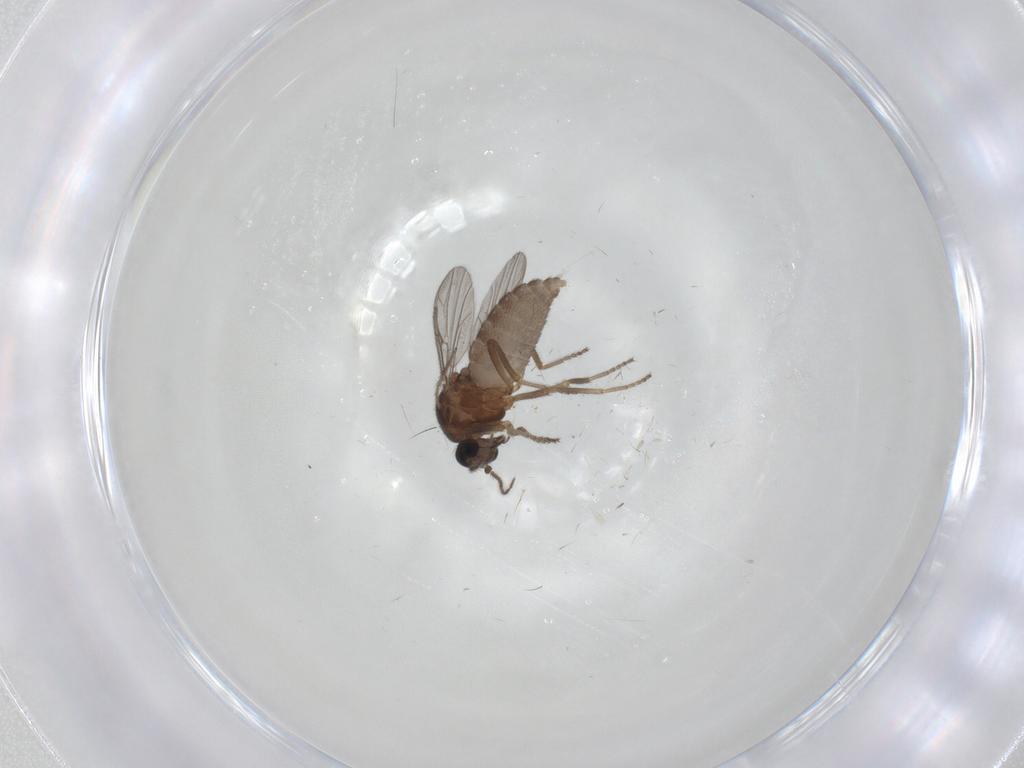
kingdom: Animalia
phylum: Arthropoda
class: Insecta
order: Diptera
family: Ceratopogonidae
